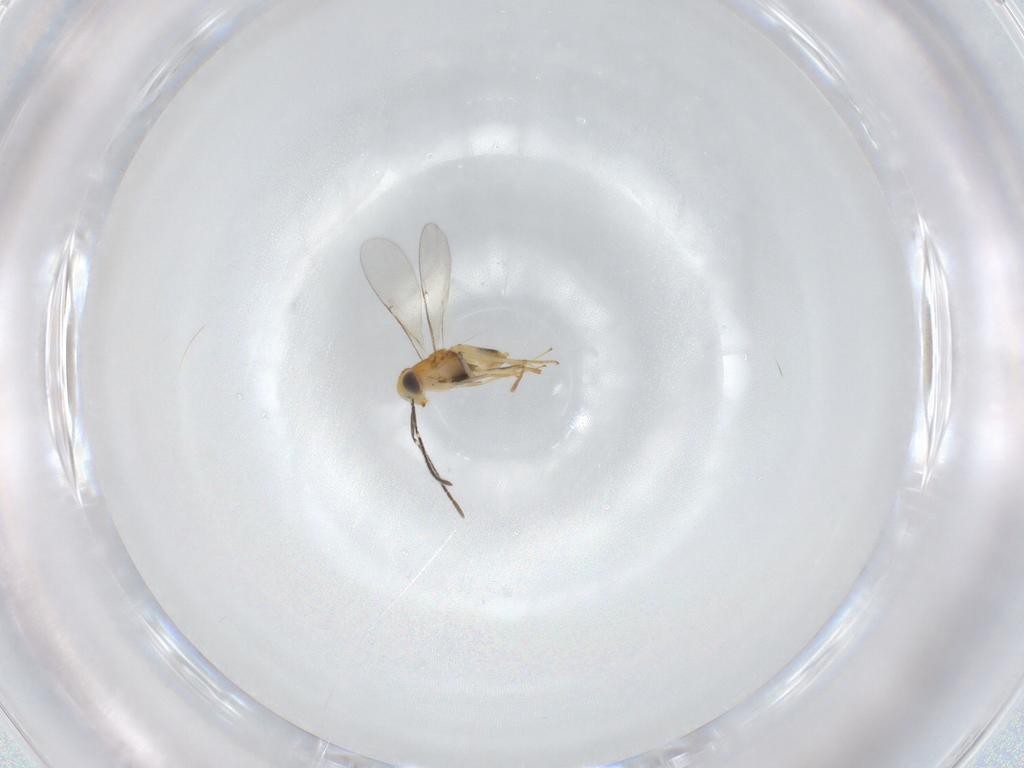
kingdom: Animalia
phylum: Arthropoda
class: Insecta
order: Hymenoptera
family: Encyrtidae
